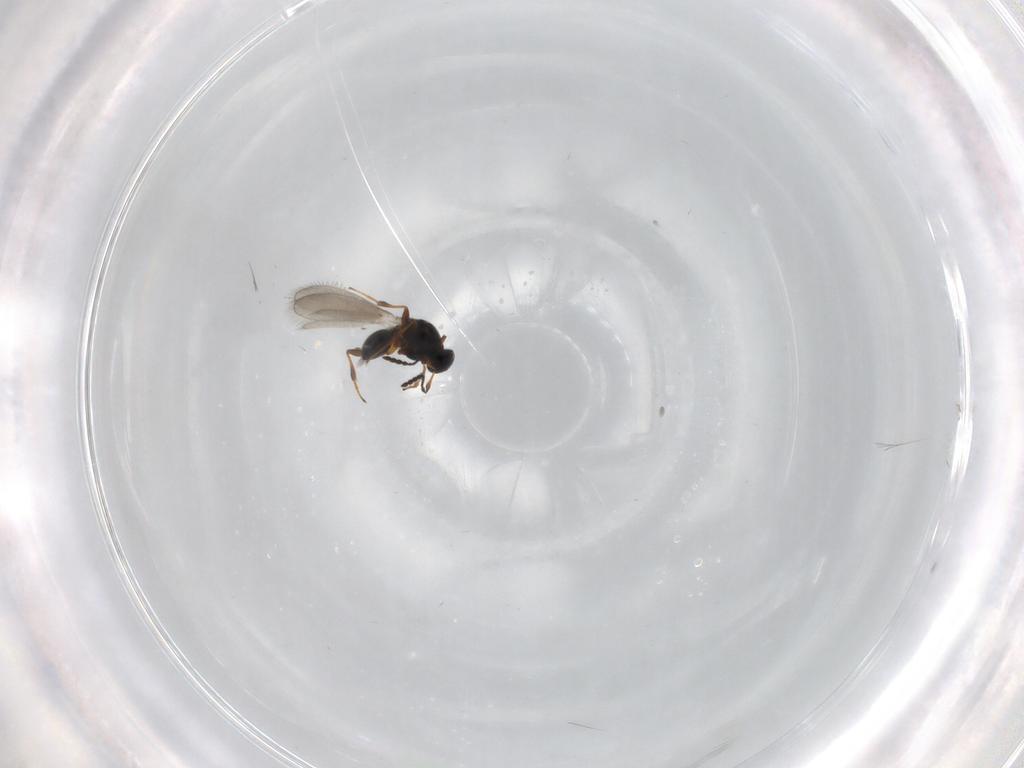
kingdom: Animalia
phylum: Arthropoda
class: Insecta
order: Hymenoptera
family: Platygastridae
